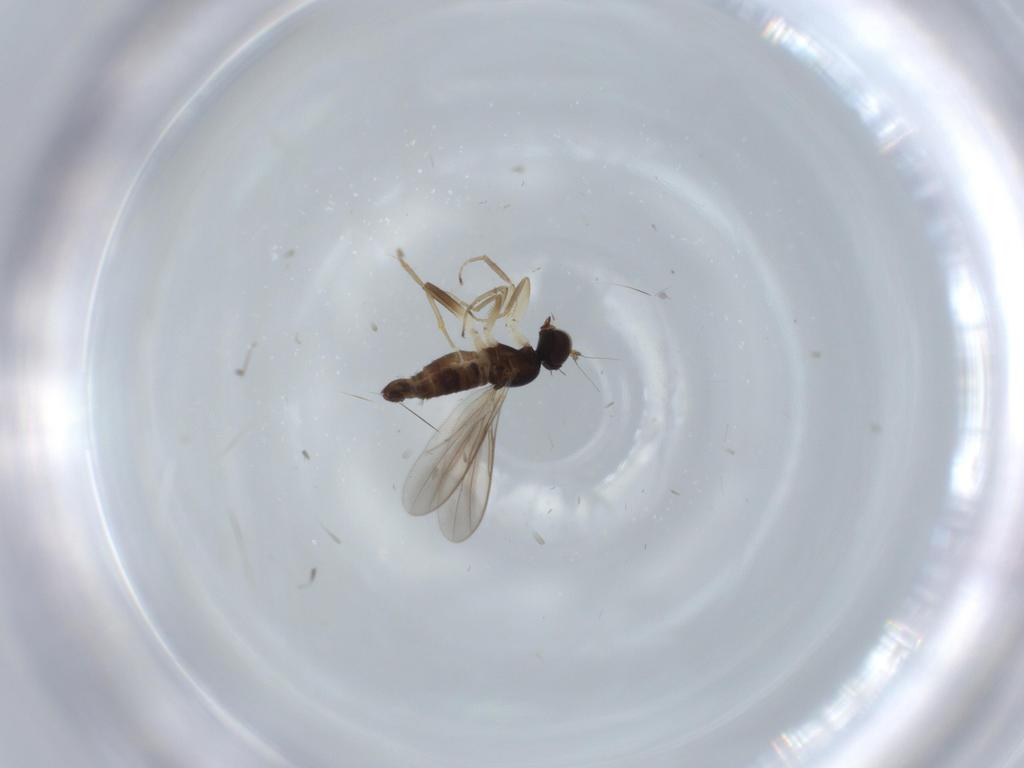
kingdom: Animalia
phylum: Arthropoda
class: Insecta
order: Diptera
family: Hybotidae
